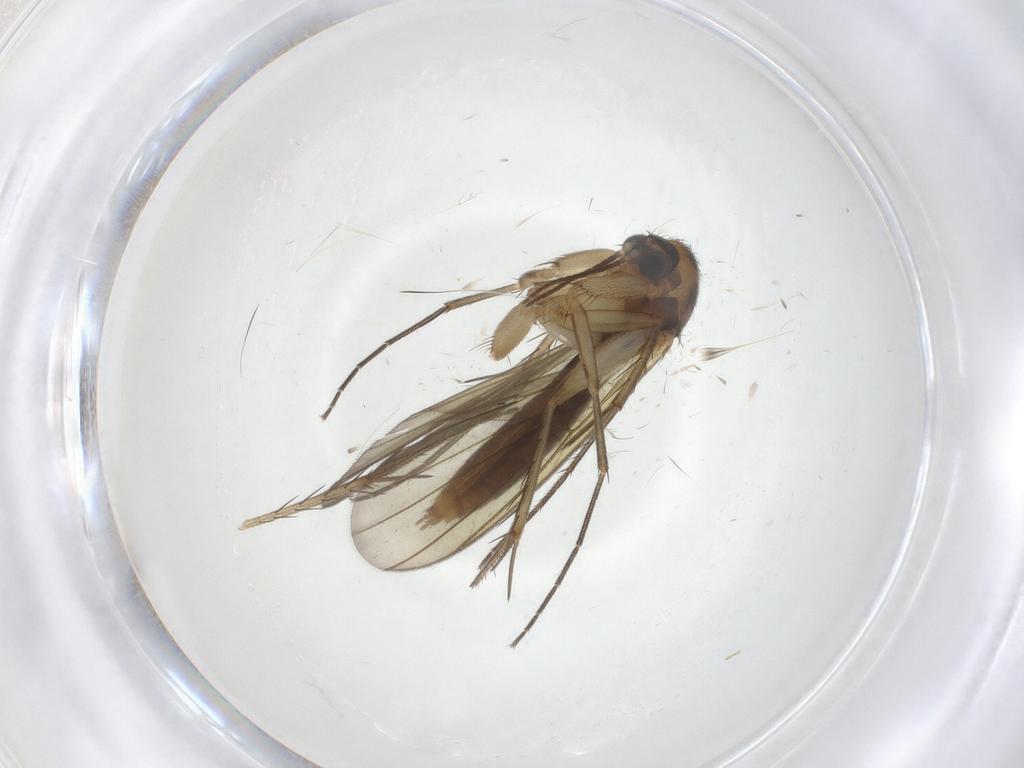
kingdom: Animalia
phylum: Arthropoda
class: Insecta
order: Diptera
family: Mycetophilidae
